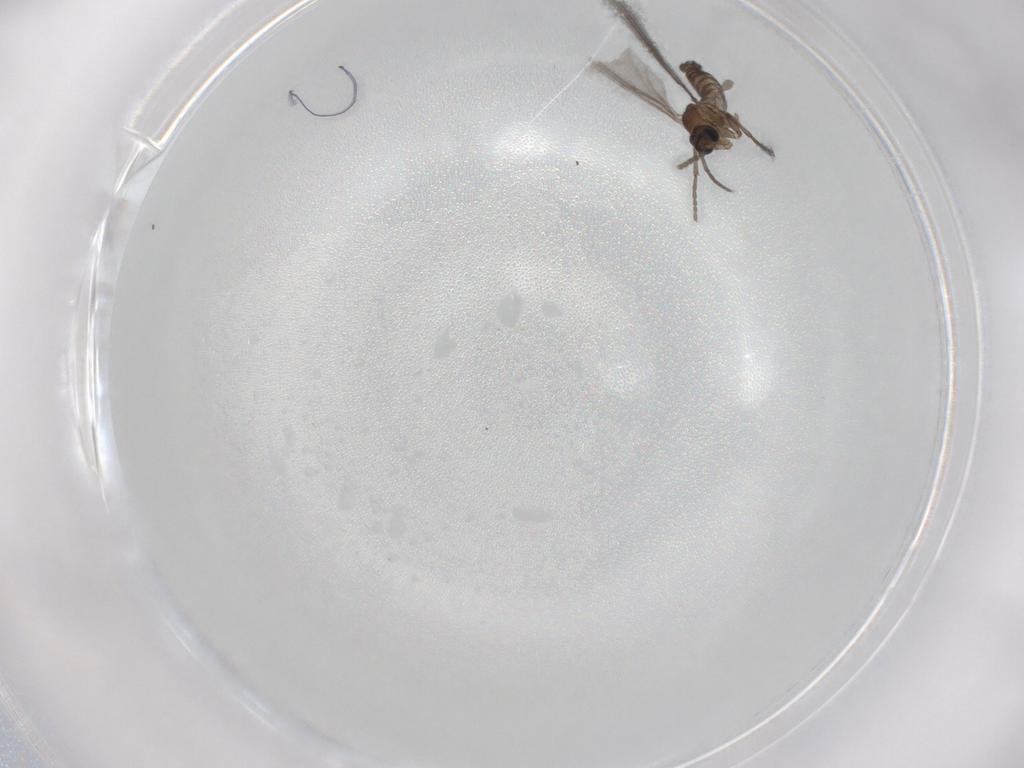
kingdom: Animalia
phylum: Arthropoda
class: Insecta
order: Diptera
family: Sciaridae
